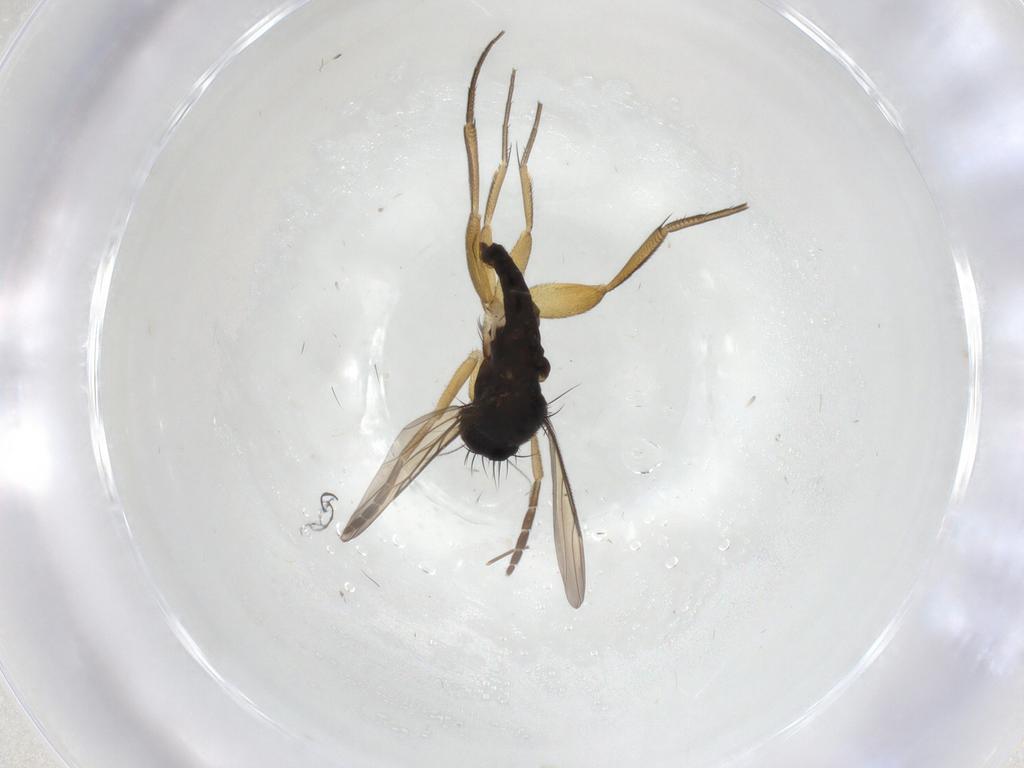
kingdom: Animalia
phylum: Arthropoda
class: Insecta
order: Diptera
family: Sciaridae
